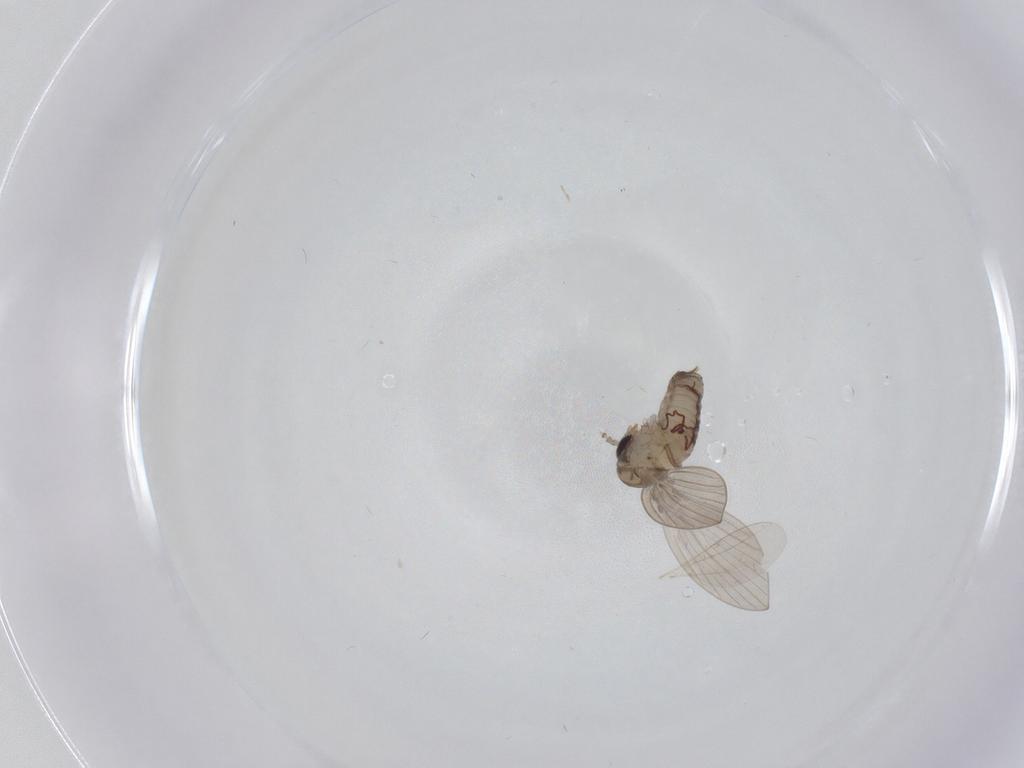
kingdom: Animalia
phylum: Arthropoda
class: Insecta
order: Diptera
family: Psychodidae
